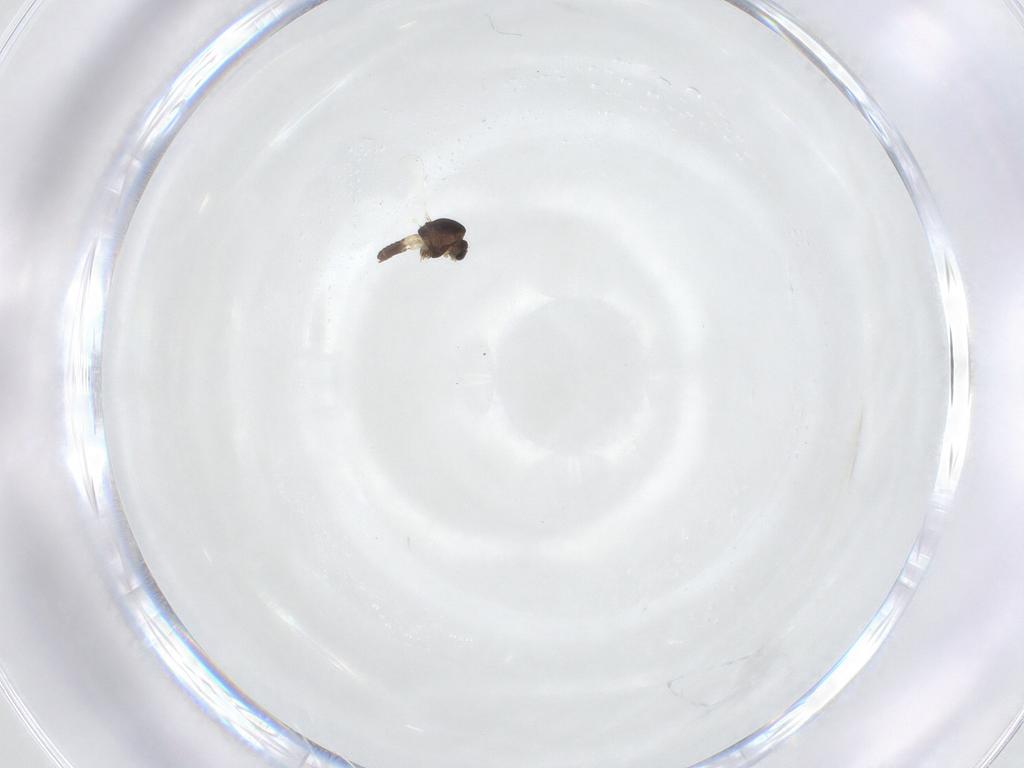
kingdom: Animalia
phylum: Arthropoda
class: Insecta
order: Diptera
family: Chironomidae
